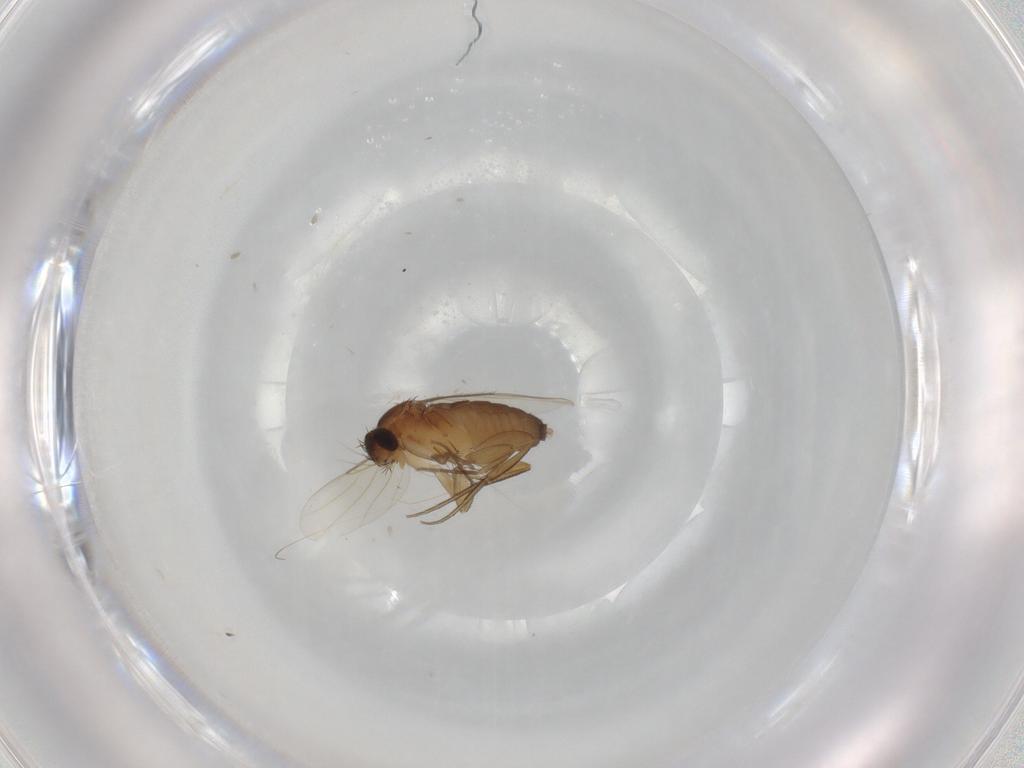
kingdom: Animalia
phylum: Arthropoda
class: Insecta
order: Diptera
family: Phoridae
